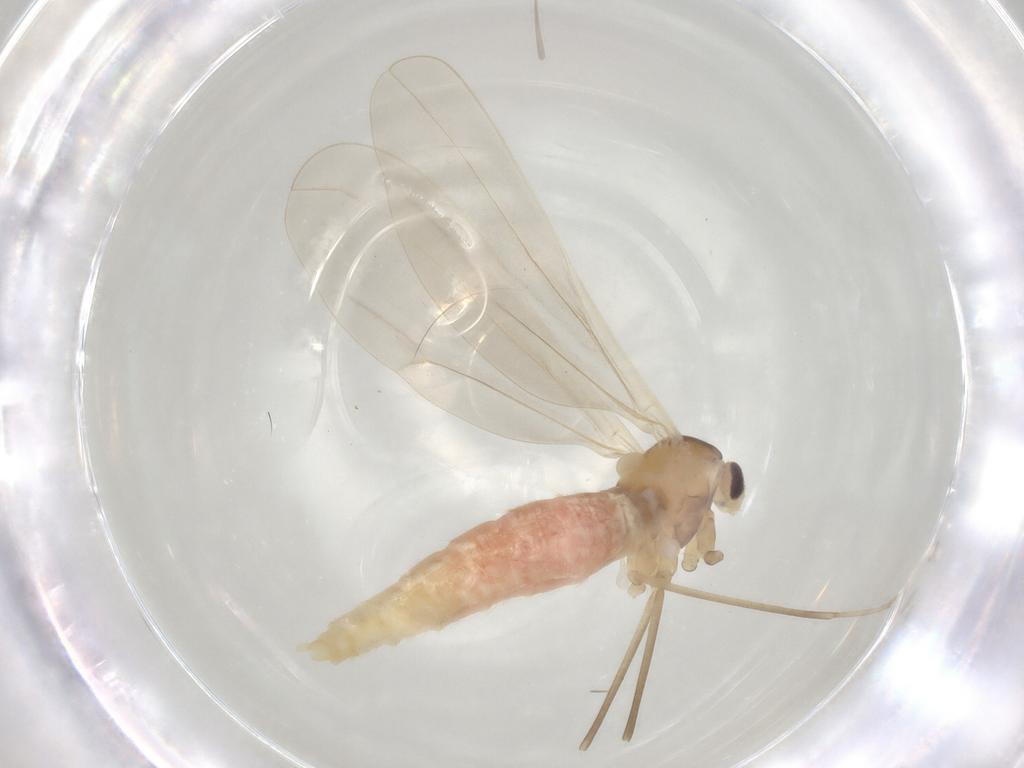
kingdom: Animalia
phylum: Arthropoda
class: Insecta
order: Diptera
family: Cecidomyiidae
